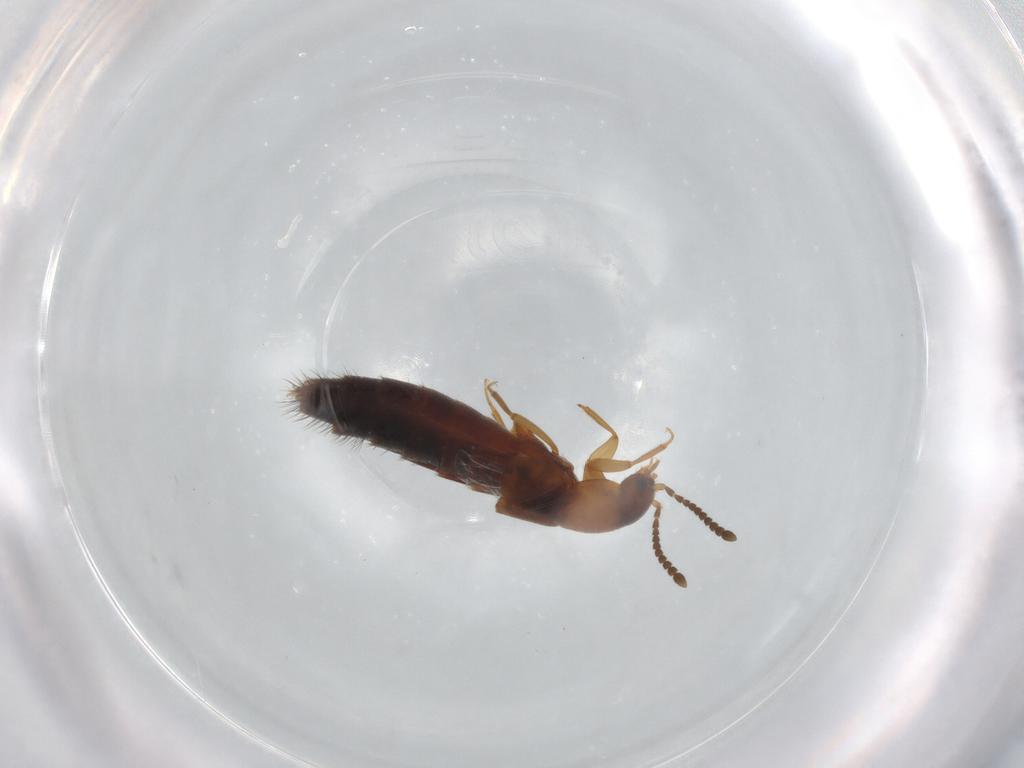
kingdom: Animalia
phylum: Arthropoda
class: Insecta
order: Coleoptera
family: Staphylinidae
